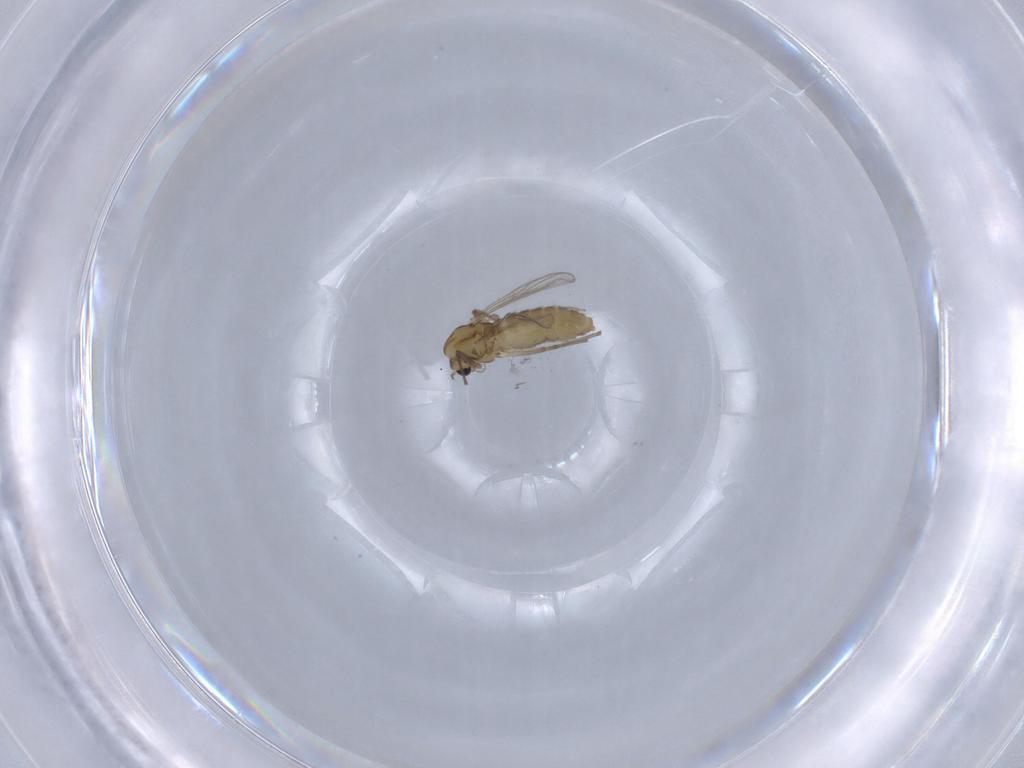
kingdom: Animalia
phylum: Arthropoda
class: Insecta
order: Diptera
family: Chironomidae
